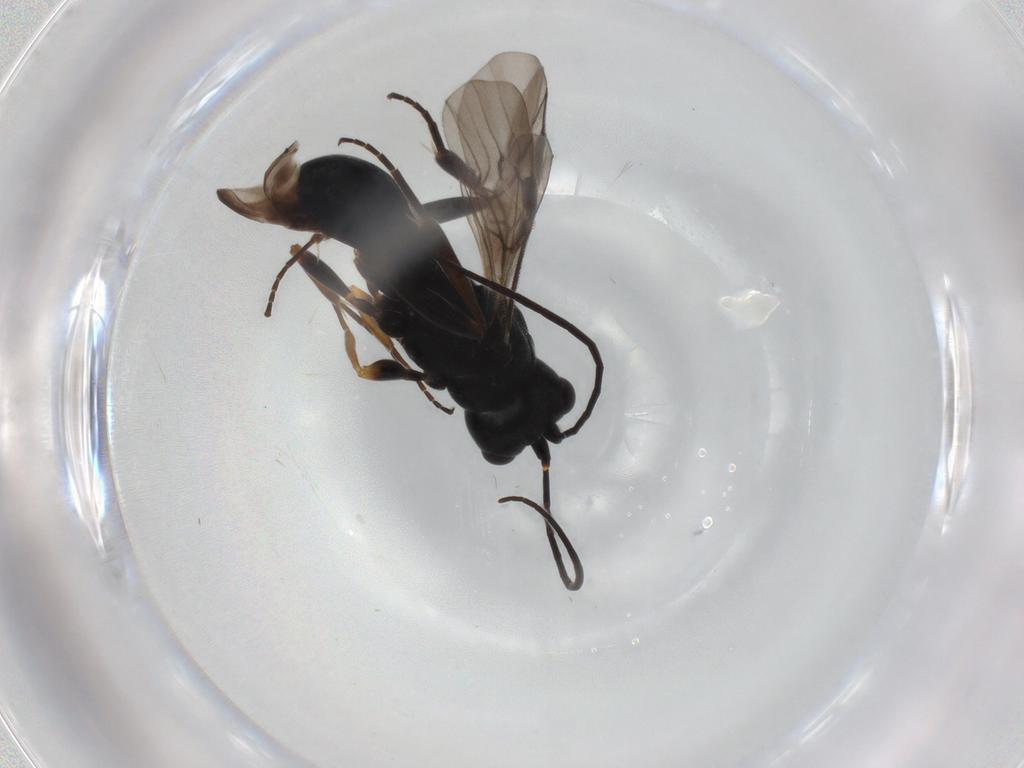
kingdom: Animalia
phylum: Arthropoda
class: Insecta
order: Hymenoptera
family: Braconidae
